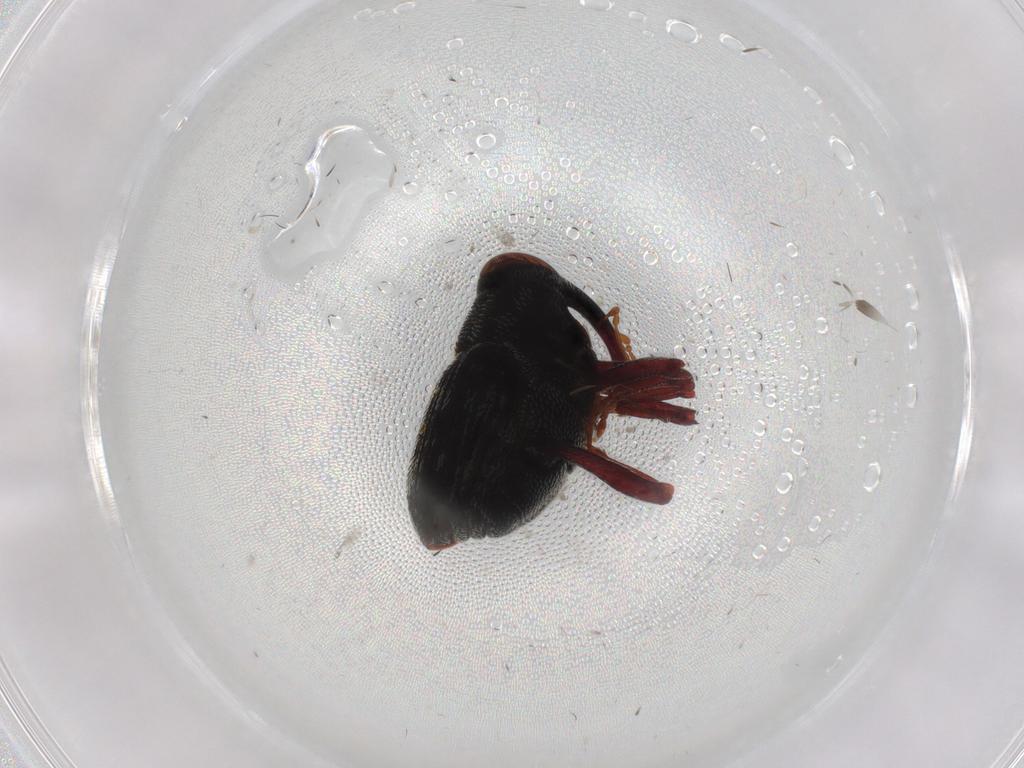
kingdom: Animalia
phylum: Arthropoda
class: Insecta
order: Coleoptera
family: Curculionidae
